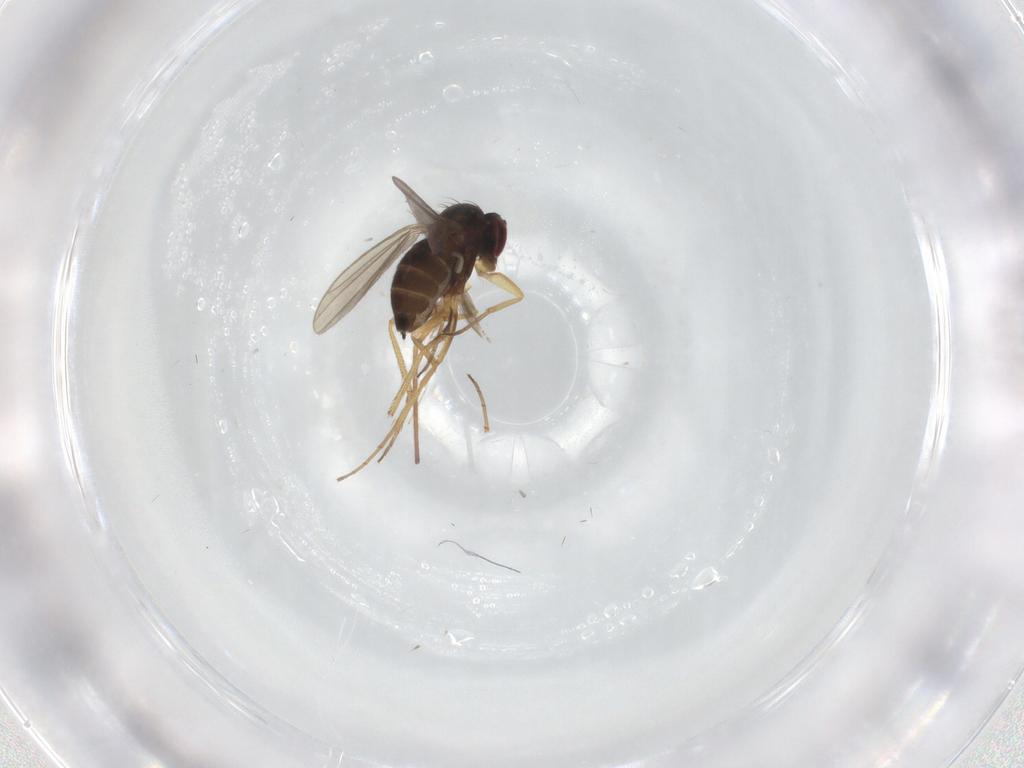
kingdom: Animalia
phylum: Arthropoda
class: Insecta
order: Diptera
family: Dolichopodidae
